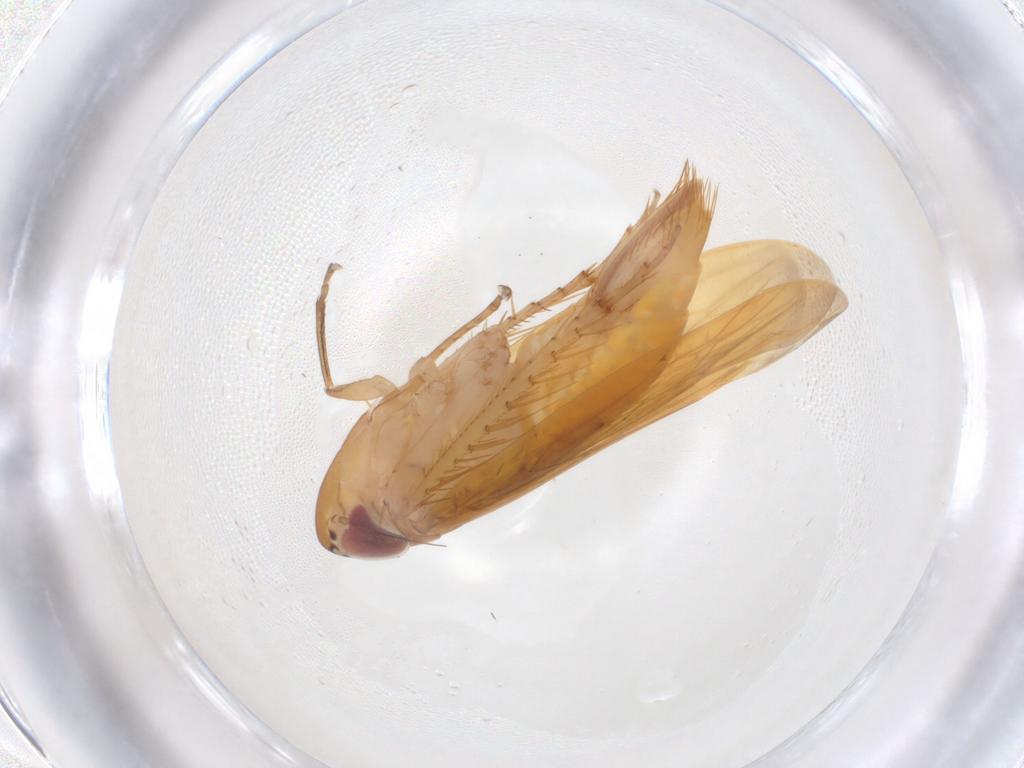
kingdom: Animalia
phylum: Arthropoda
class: Insecta
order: Hemiptera
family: Cicadellidae
